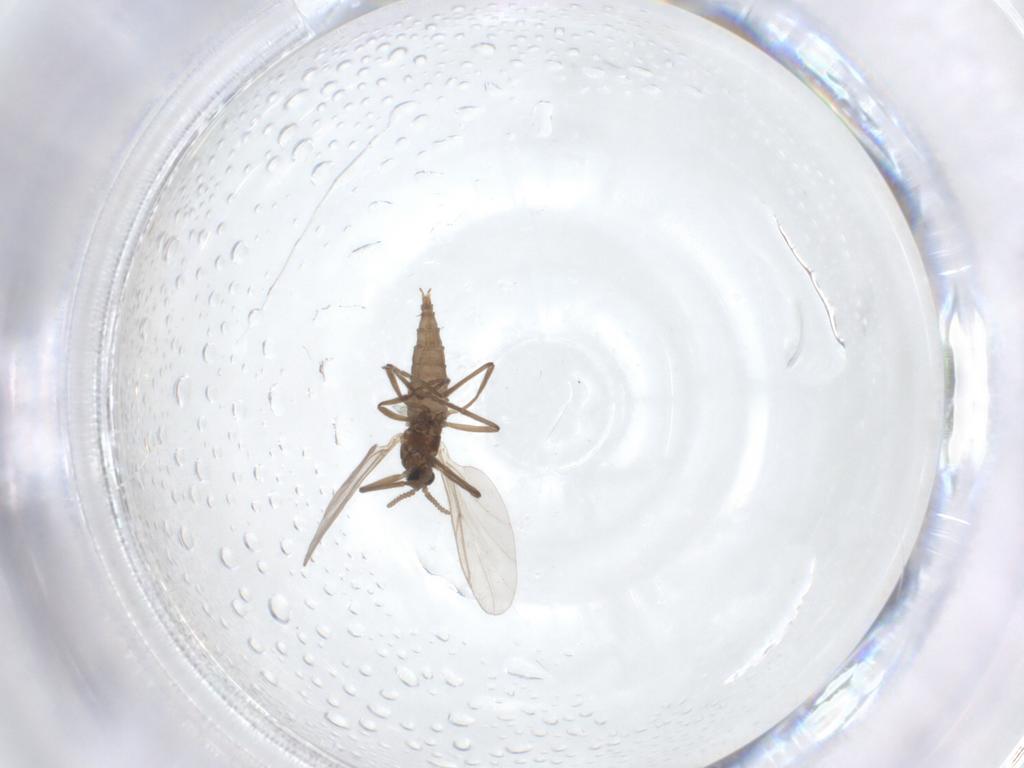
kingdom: Animalia
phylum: Arthropoda
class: Insecta
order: Diptera
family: Cecidomyiidae
